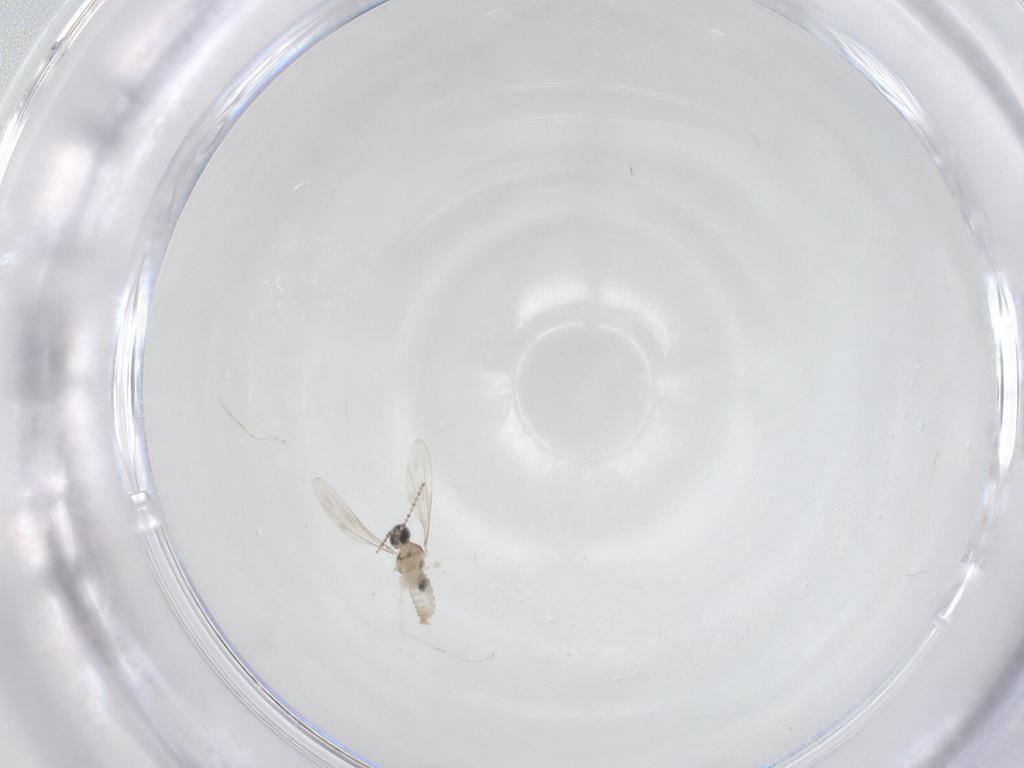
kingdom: Animalia
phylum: Arthropoda
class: Insecta
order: Diptera
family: Cecidomyiidae
